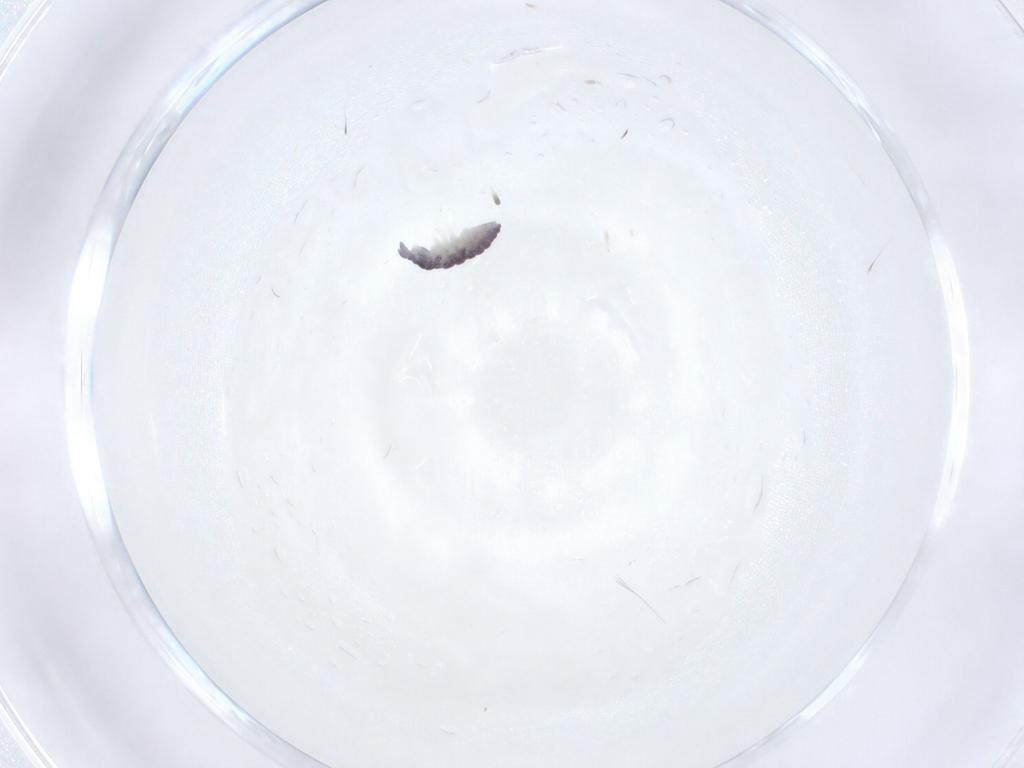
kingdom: Animalia
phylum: Arthropoda
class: Collembola
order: Poduromorpha
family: Neanuridae
